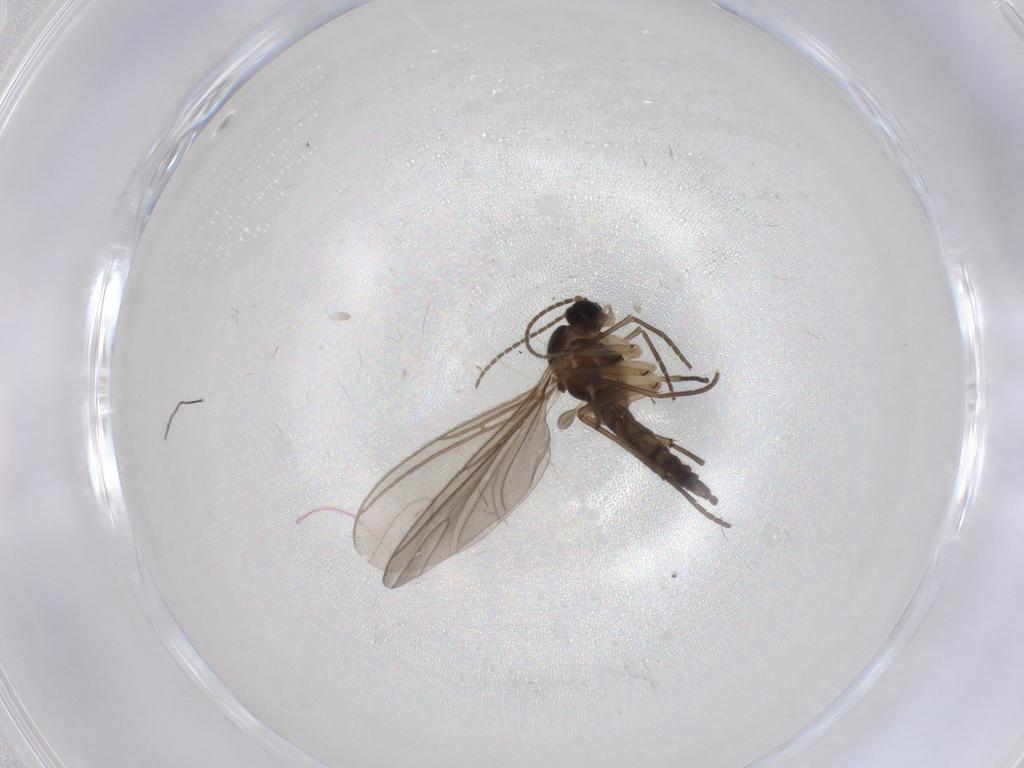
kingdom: Animalia
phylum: Arthropoda
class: Insecta
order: Diptera
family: Sciaridae
